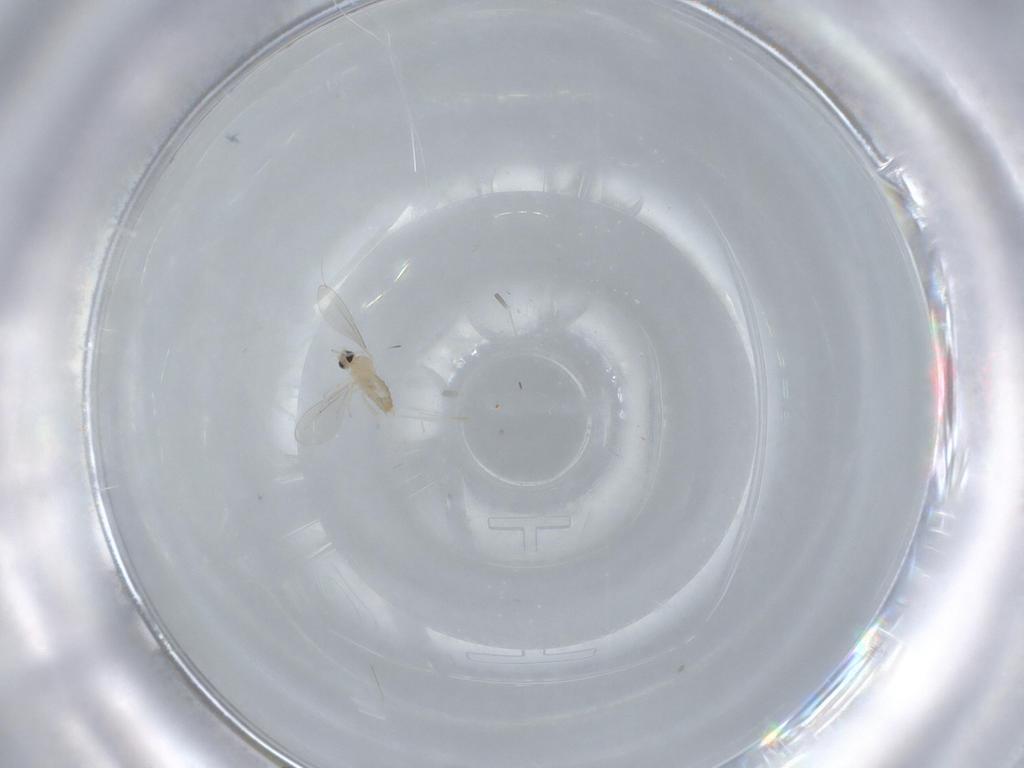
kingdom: Animalia
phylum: Arthropoda
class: Insecta
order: Diptera
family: Cecidomyiidae
